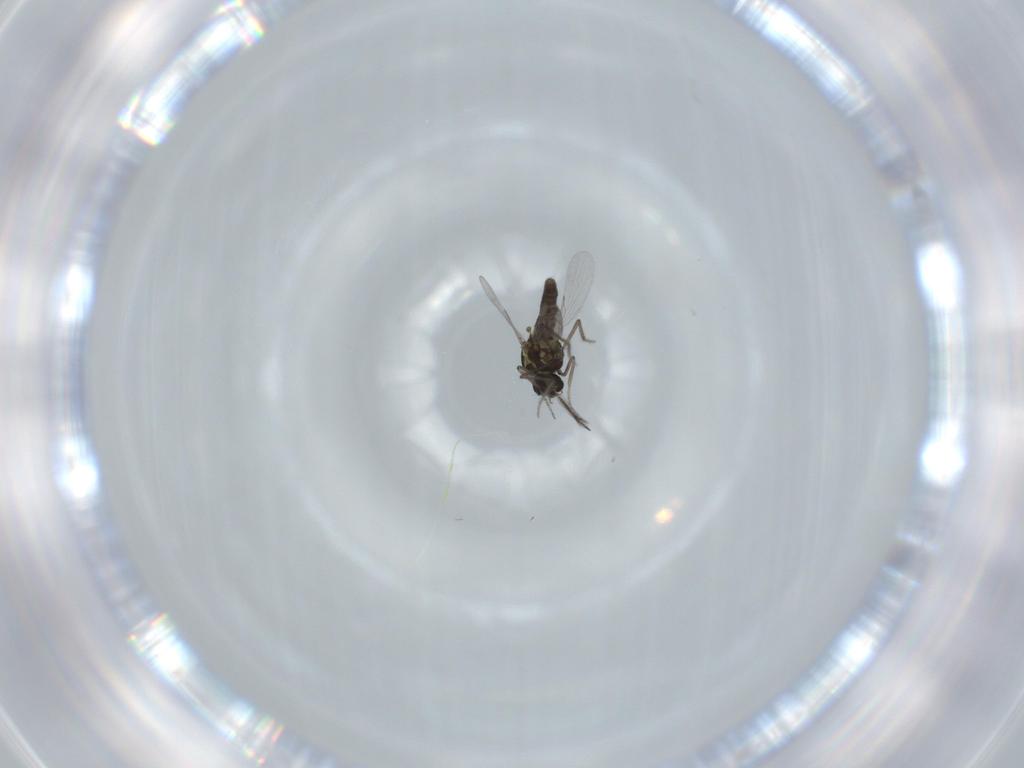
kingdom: Animalia
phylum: Arthropoda
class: Insecta
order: Diptera
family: Ceratopogonidae
